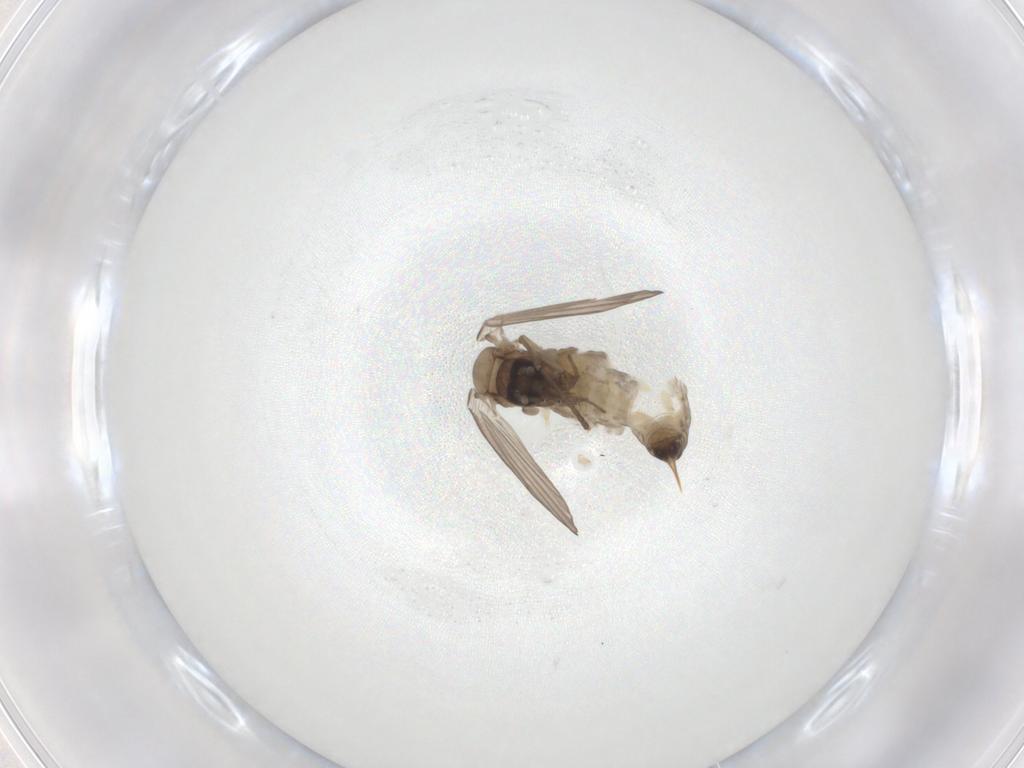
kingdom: Animalia
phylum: Arthropoda
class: Insecta
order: Diptera
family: Psychodidae
